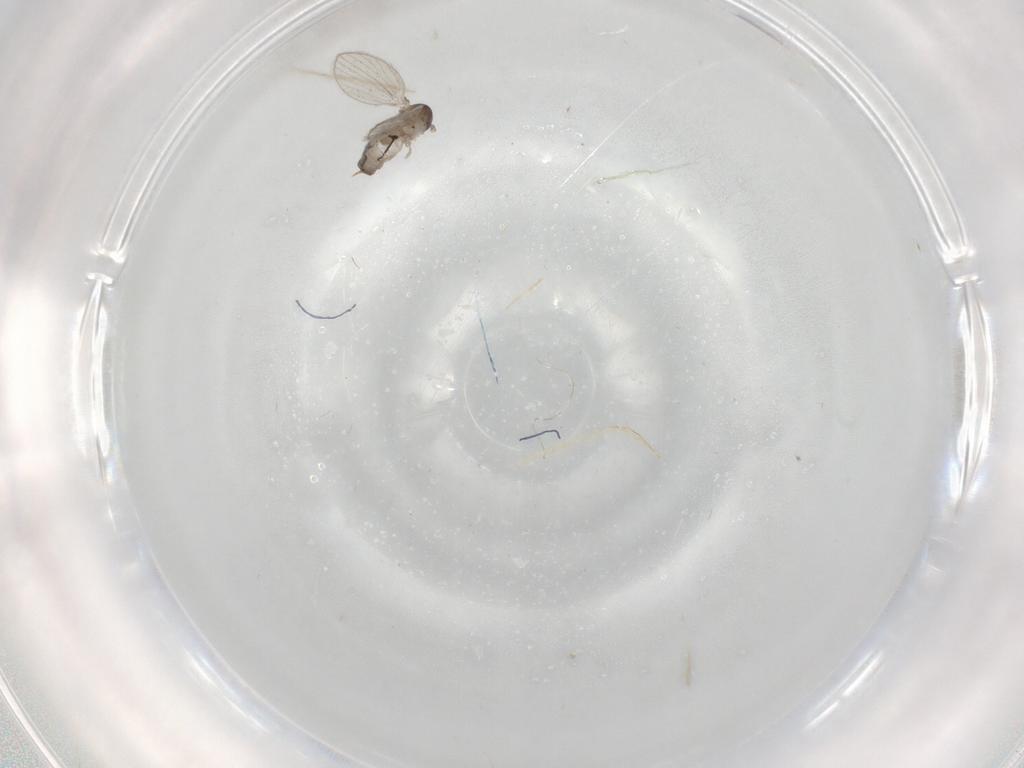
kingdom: Animalia
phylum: Arthropoda
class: Insecta
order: Diptera
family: Psychodidae
